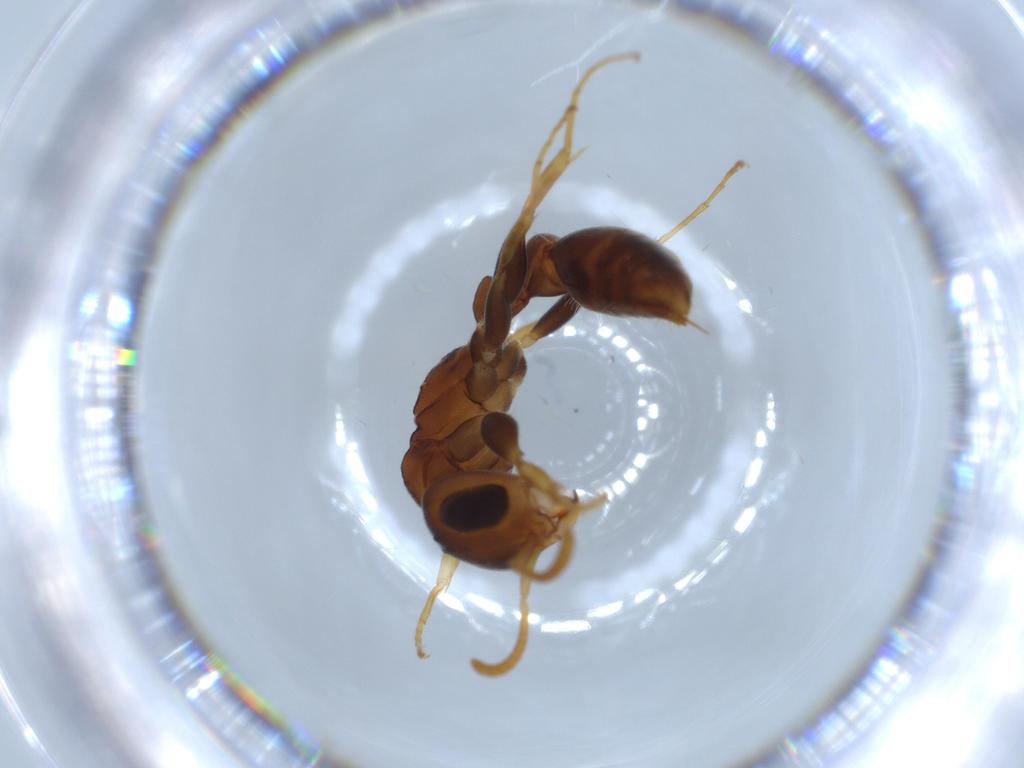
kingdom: Animalia
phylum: Arthropoda
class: Insecta
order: Hymenoptera
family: Formicidae
